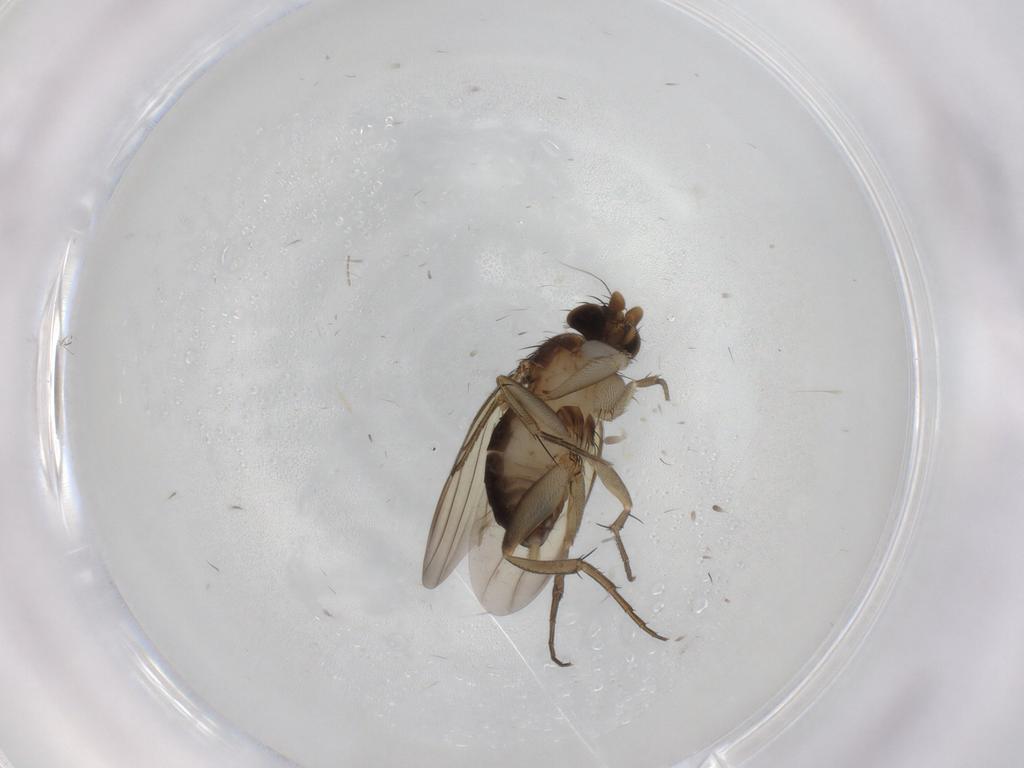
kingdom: Animalia
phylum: Arthropoda
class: Insecta
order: Diptera
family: Phoridae
